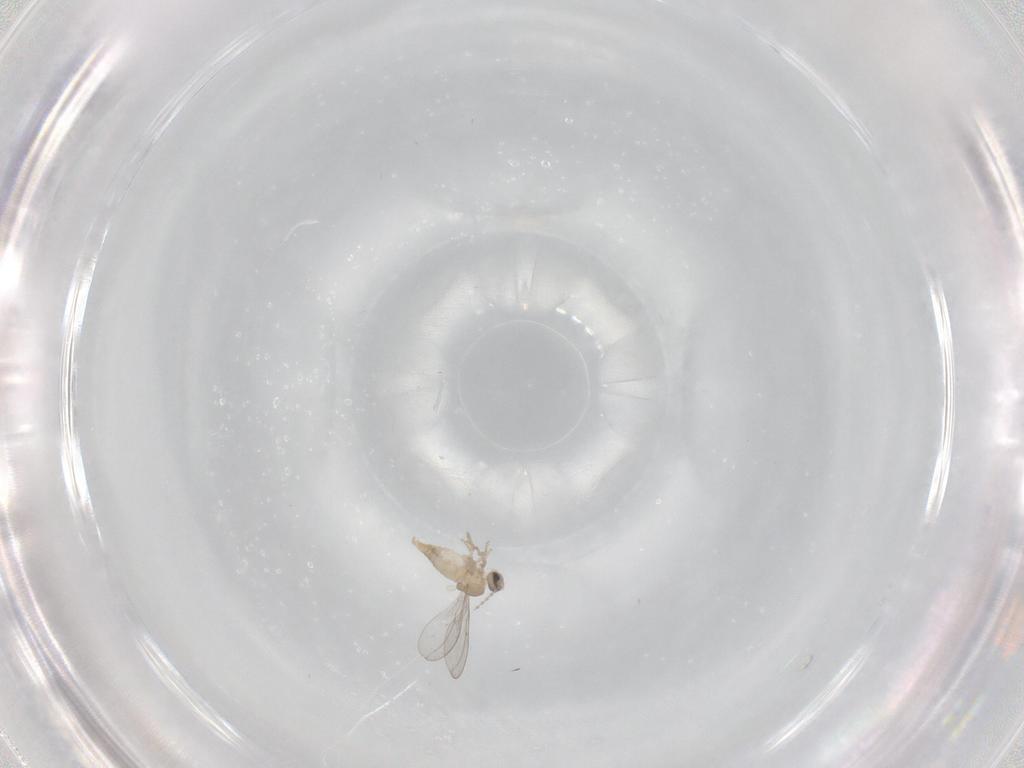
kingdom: Animalia
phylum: Arthropoda
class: Insecta
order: Diptera
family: Cecidomyiidae
